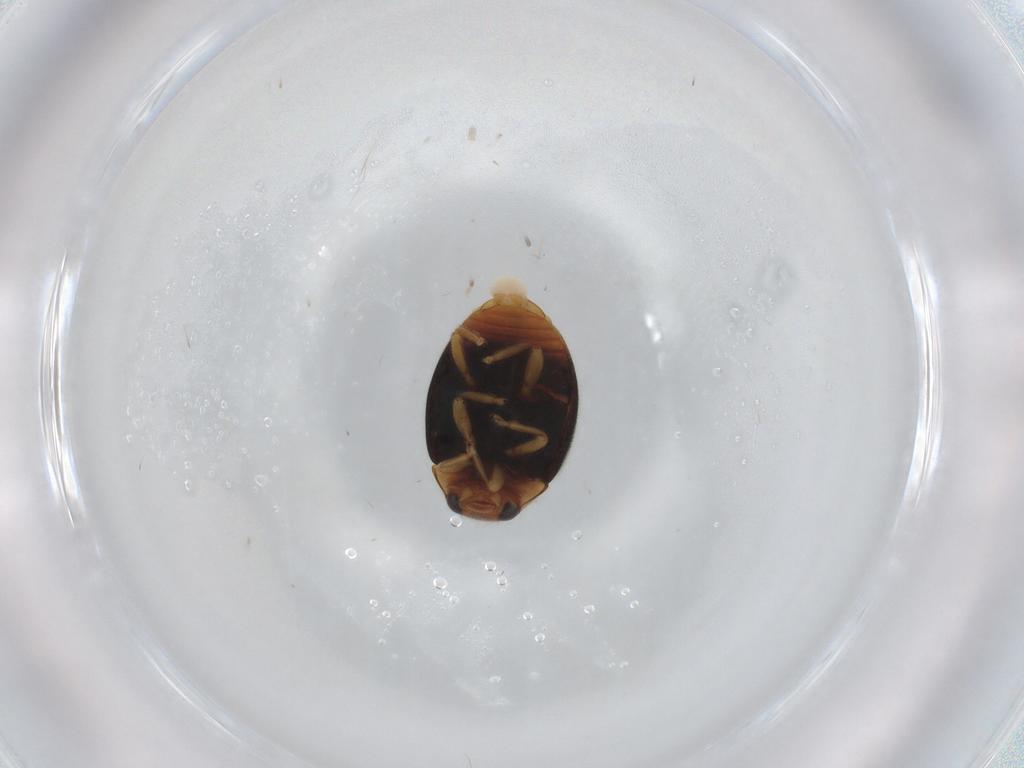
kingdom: Animalia
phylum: Arthropoda
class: Insecta
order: Coleoptera
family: Coccinellidae
